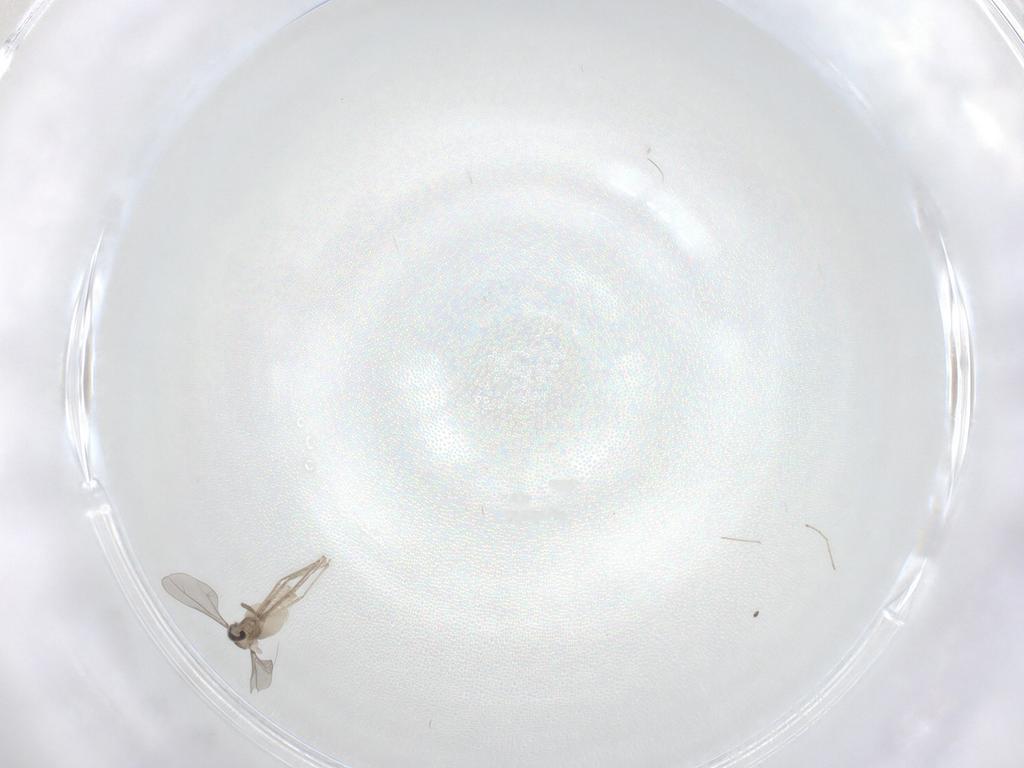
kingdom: Animalia
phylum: Arthropoda
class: Insecta
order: Diptera
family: Cecidomyiidae
